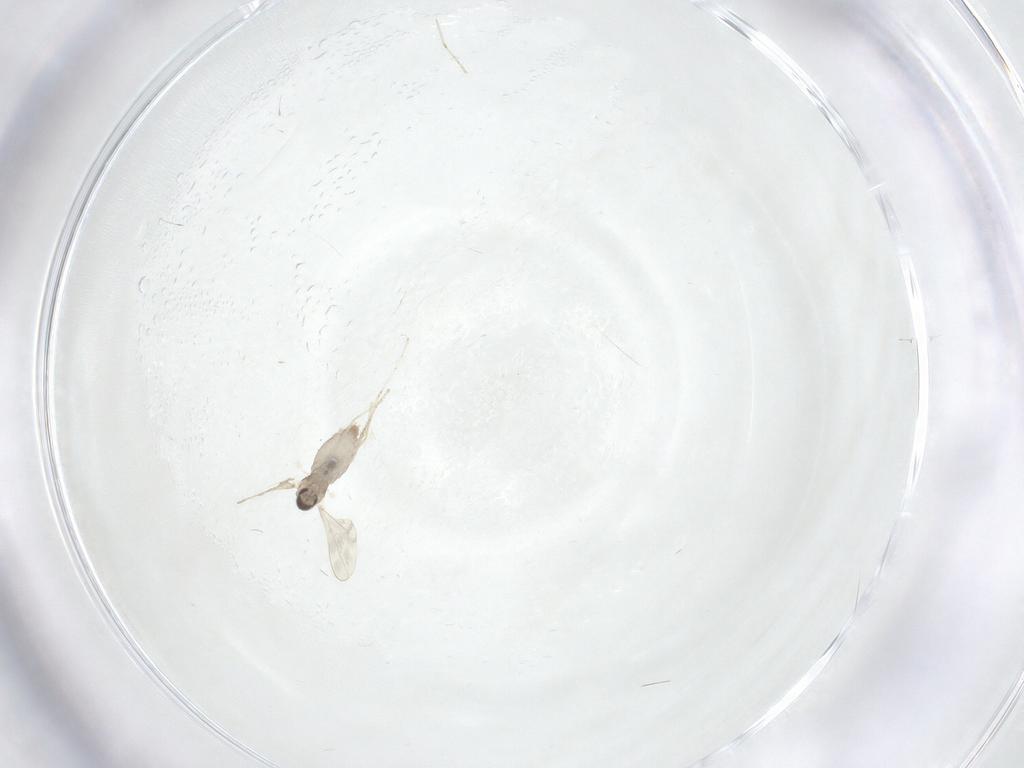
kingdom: Animalia
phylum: Arthropoda
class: Insecta
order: Diptera
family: Cecidomyiidae
